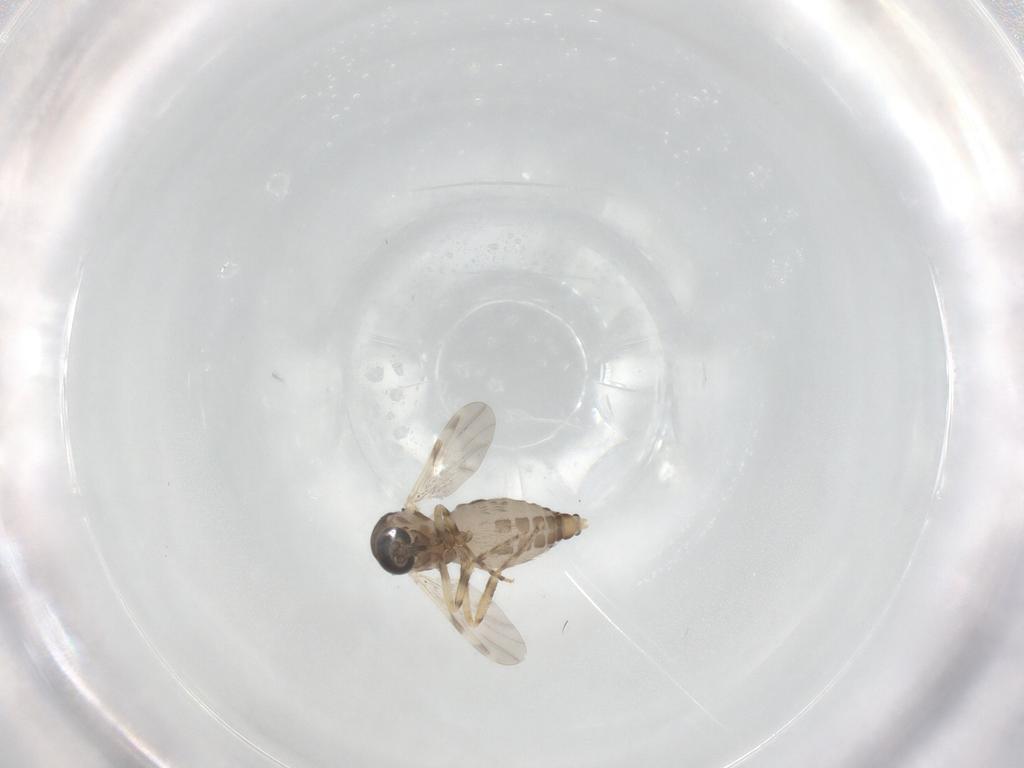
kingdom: Animalia
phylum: Arthropoda
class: Insecta
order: Diptera
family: Ceratopogonidae
